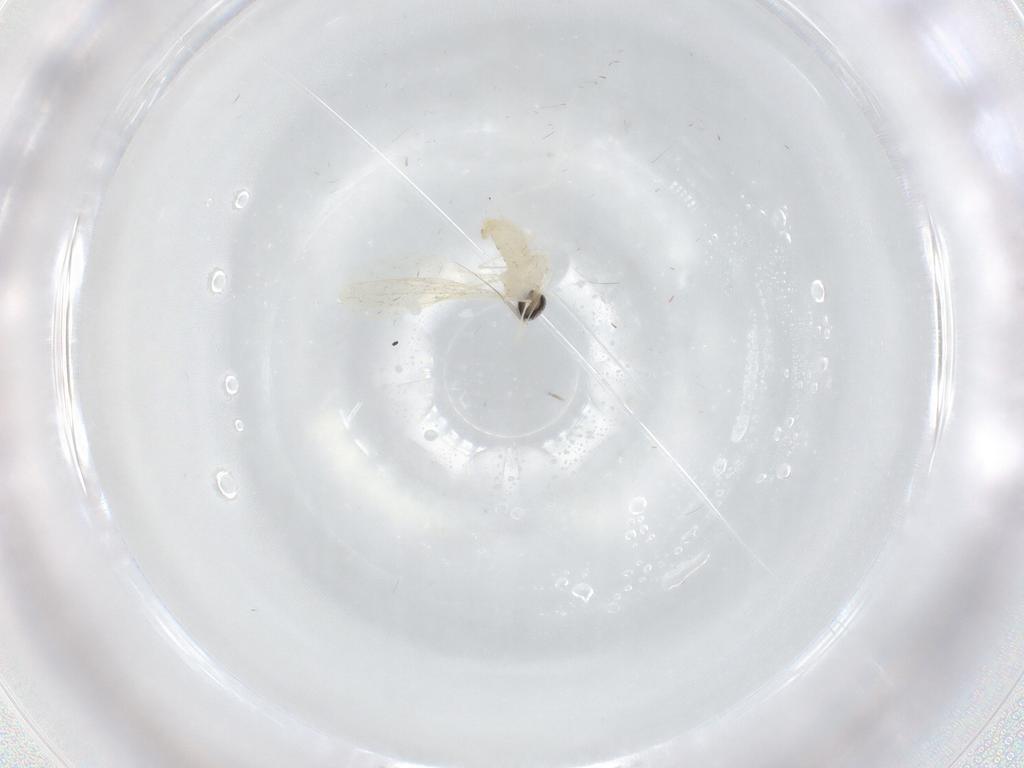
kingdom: Animalia
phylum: Arthropoda
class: Insecta
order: Diptera
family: Cecidomyiidae
